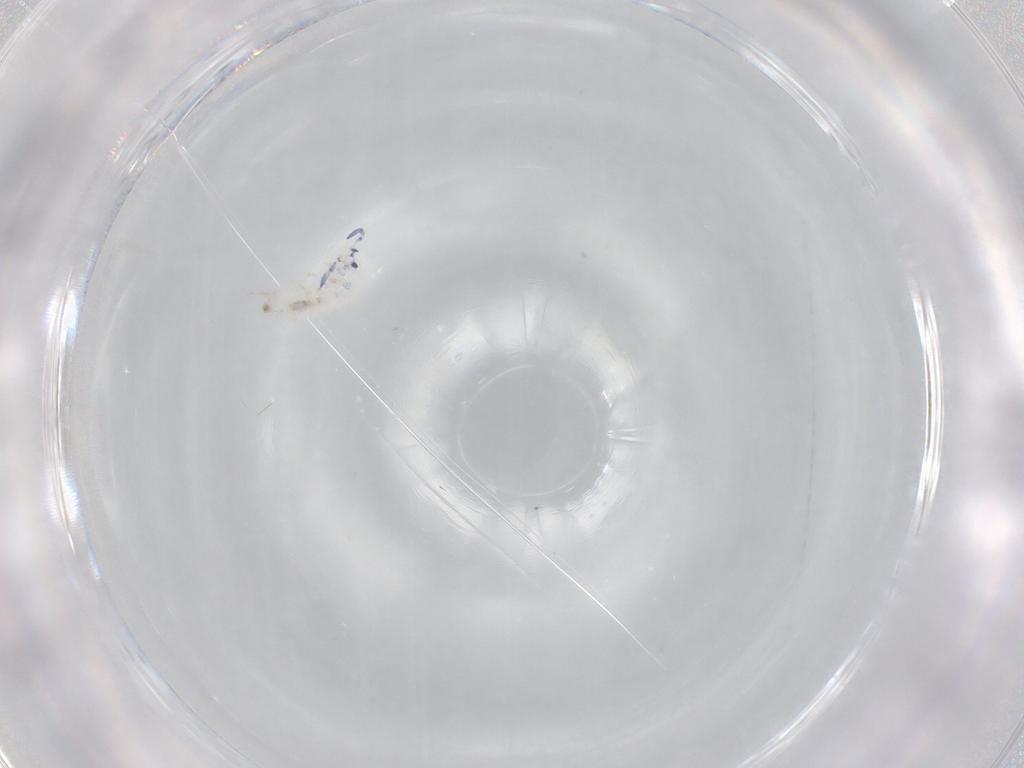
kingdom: Animalia
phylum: Arthropoda
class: Collembola
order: Entomobryomorpha
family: Entomobryidae
